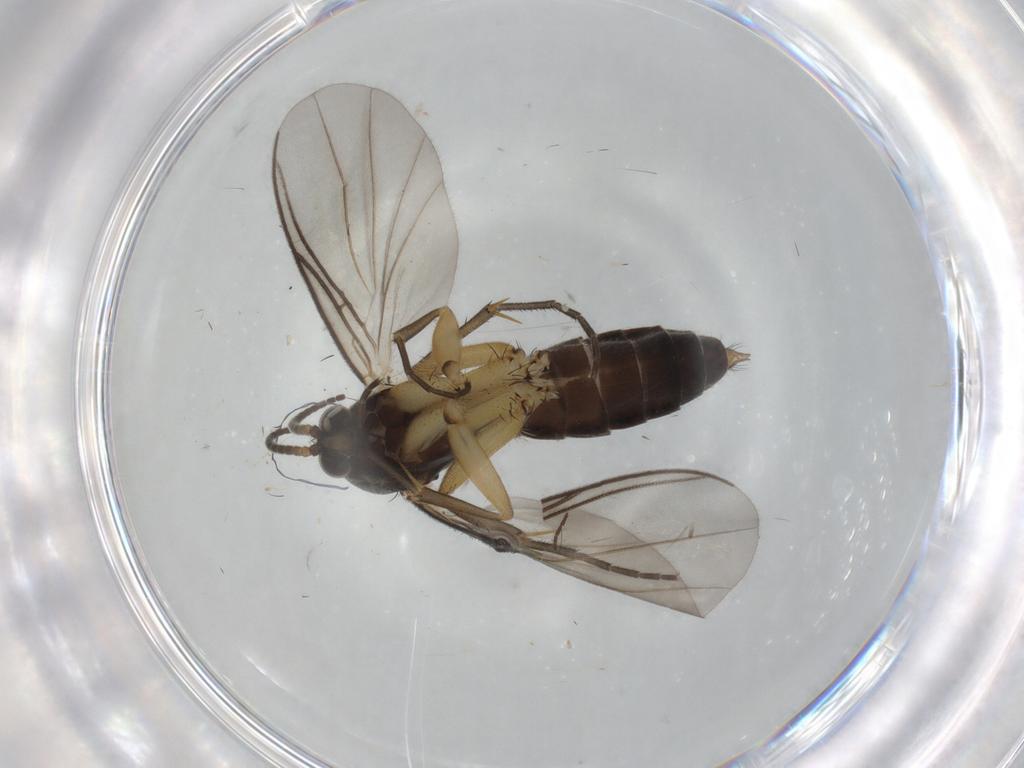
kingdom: Animalia
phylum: Arthropoda
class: Insecta
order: Diptera
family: Mycetophilidae
